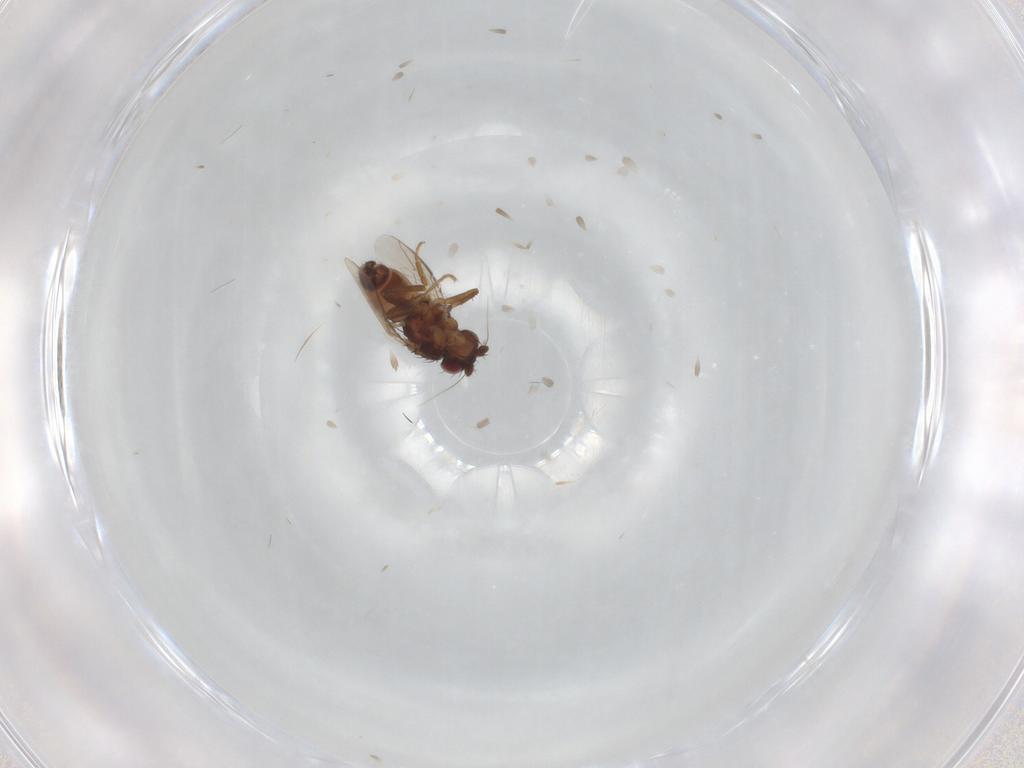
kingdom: Animalia
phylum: Arthropoda
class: Insecta
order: Diptera
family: Sphaeroceridae
